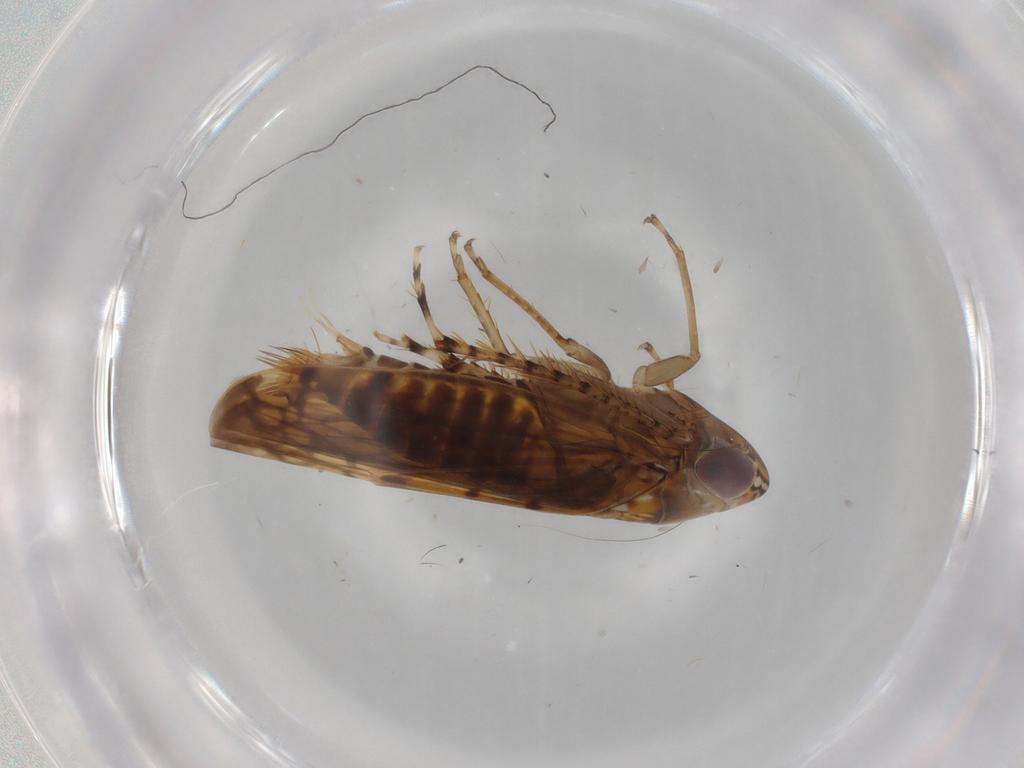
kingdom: Animalia
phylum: Arthropoda
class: Insecta
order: Hemiptera
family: Cicadellidae
